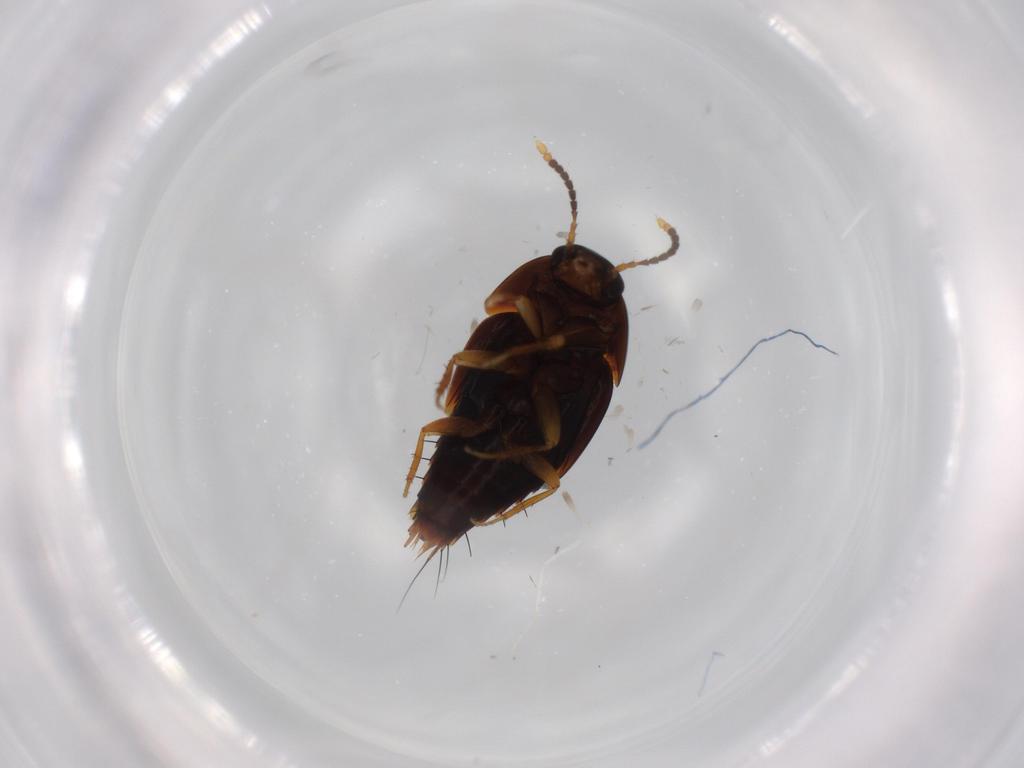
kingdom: Animalia
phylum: Arthropoda
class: Insecta
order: Coleoptera
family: Staphylinidae
